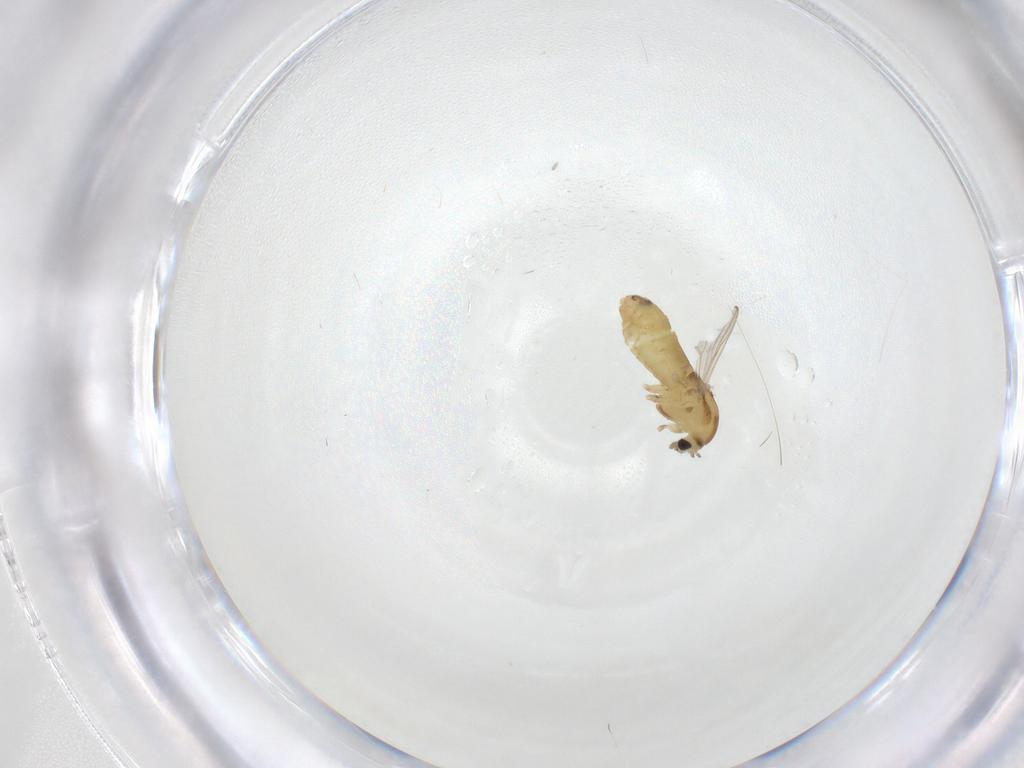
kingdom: Animalia
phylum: Arthropoda
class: Insecta
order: Diptera
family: Chironomidae
